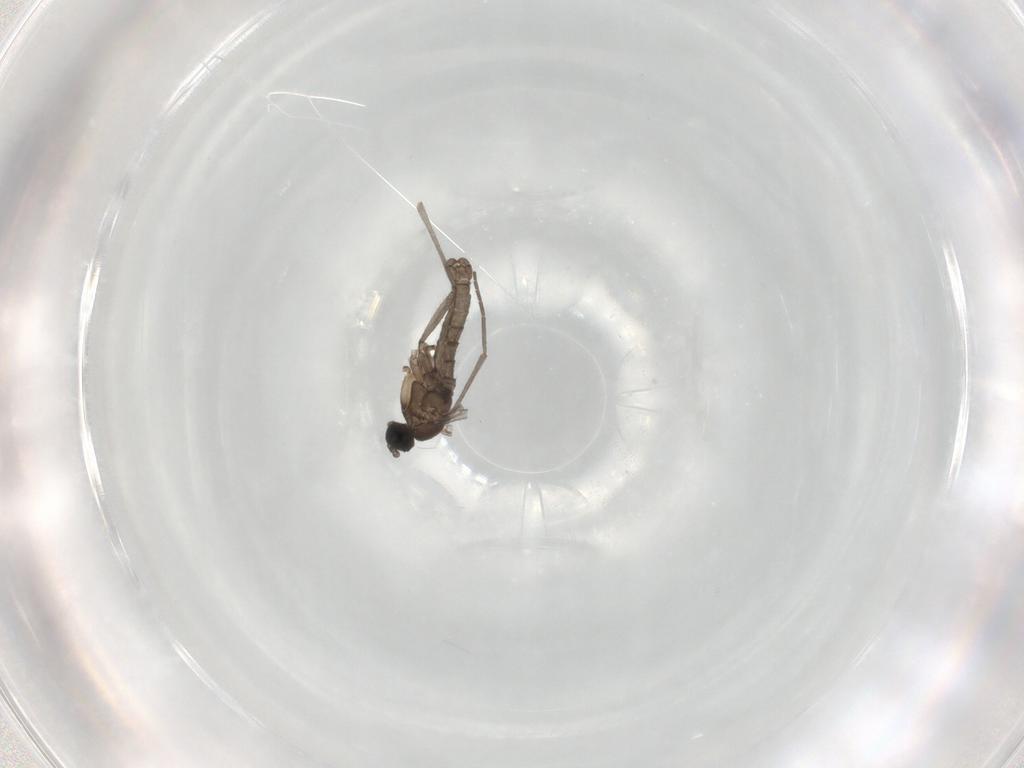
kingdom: Animalia
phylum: Arthropoda
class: Insecta
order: Diptera
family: Sciaridae
